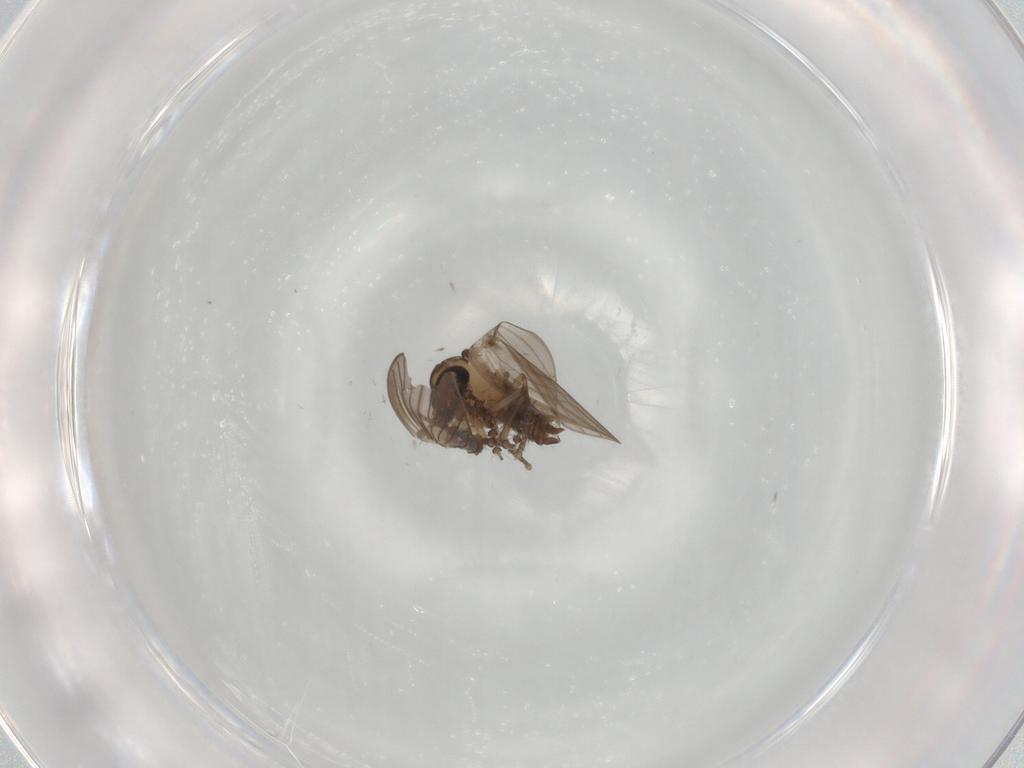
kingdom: Animalia
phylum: Arthropoda
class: Insecta
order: Diptera
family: Psychodidae
